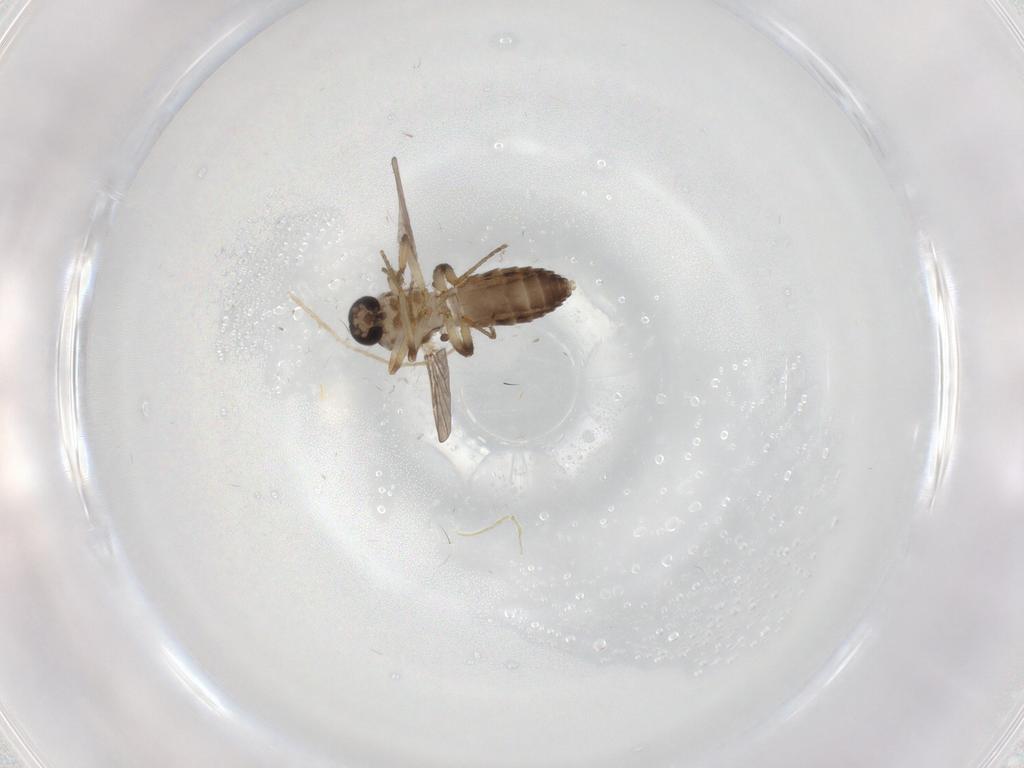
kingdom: Animalia
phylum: Arthropoda
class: Insecta
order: Diptera
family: Ceratopogonidae
